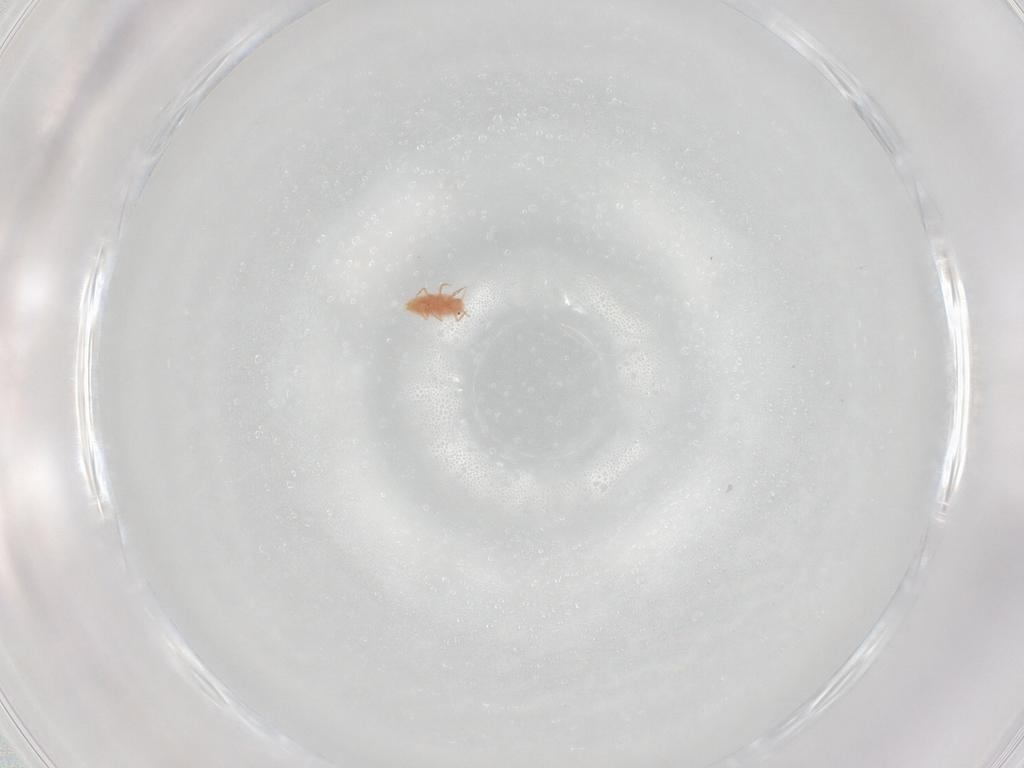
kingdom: Animalia
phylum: Arthropoda
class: Insecta
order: Hemiptera
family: Coccoidea_incertae_sedis
